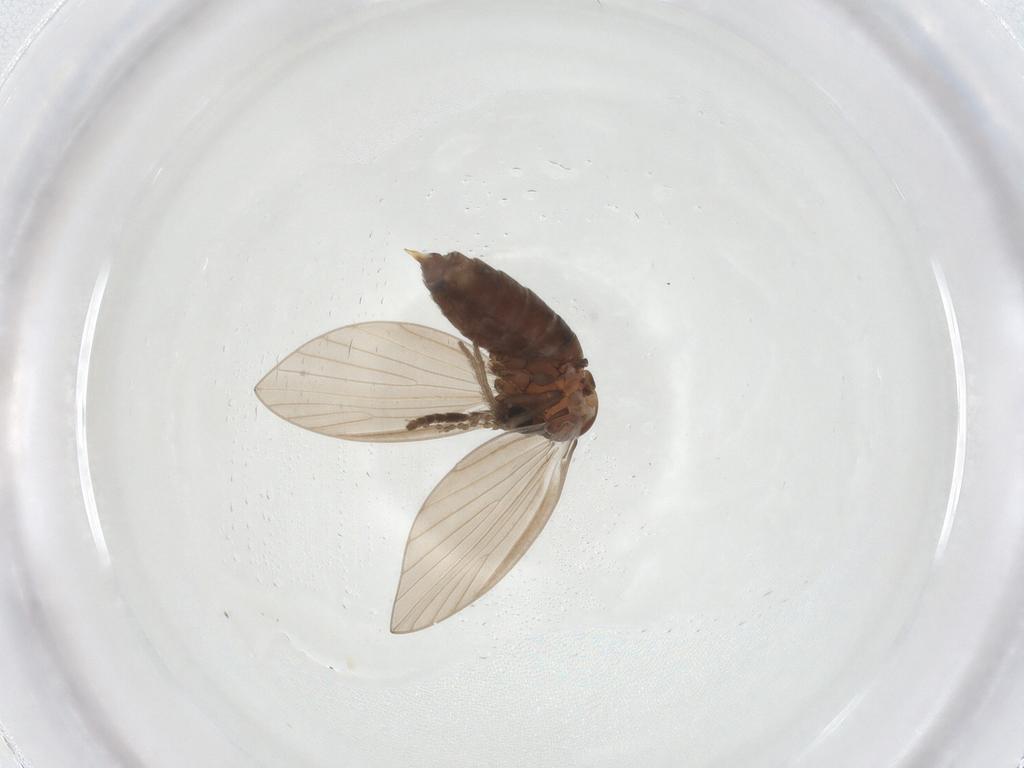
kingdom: Animalia
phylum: Arthropoda
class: Insecta
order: Diptera
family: Psychodidae
